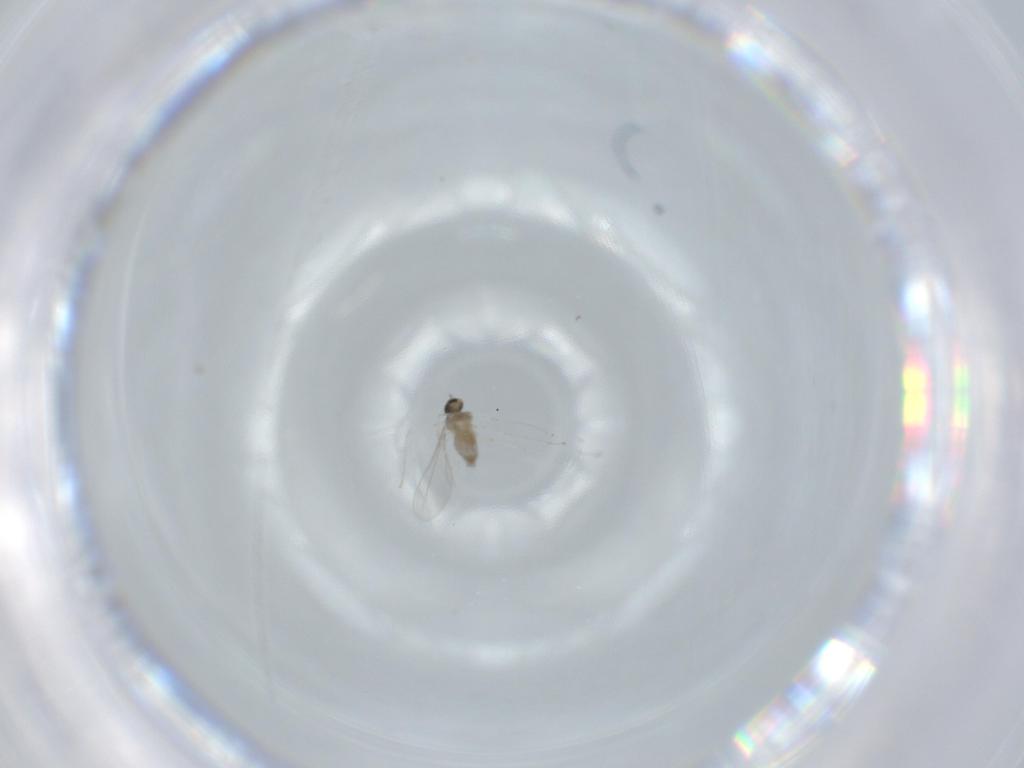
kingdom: Animalia
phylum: Arthropoda
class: Insecta
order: Diptera
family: Cecidomyiidae
